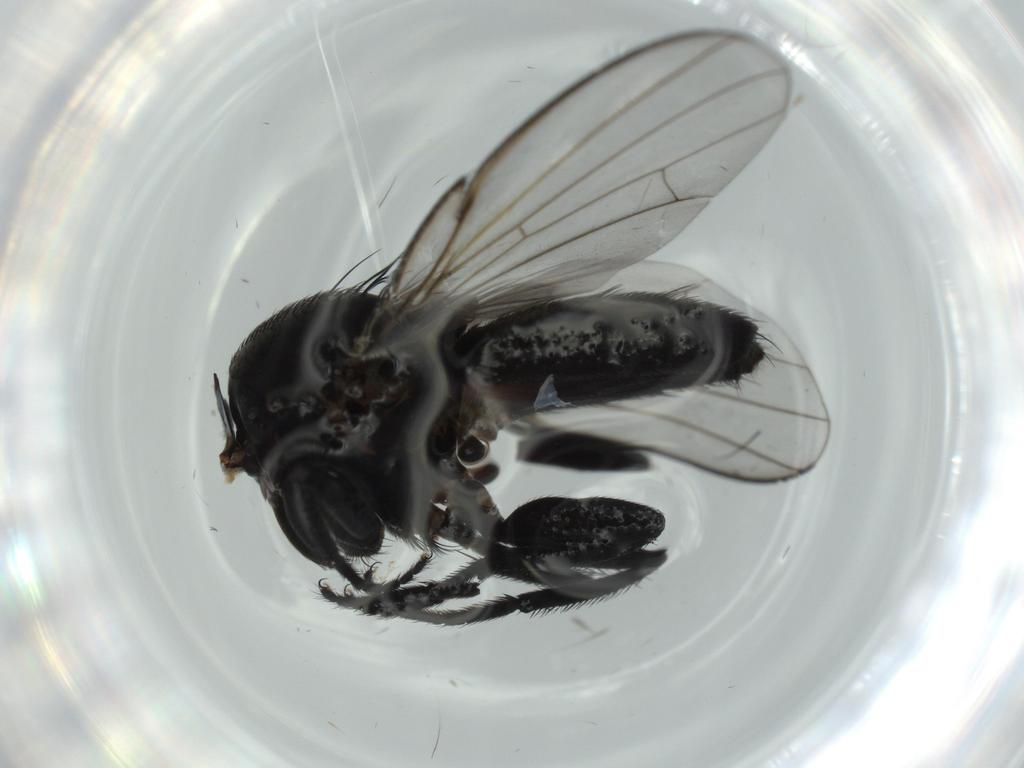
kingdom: Animalia
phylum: Arthropoda
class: Insecta
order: Diptera
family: Milichiidae
